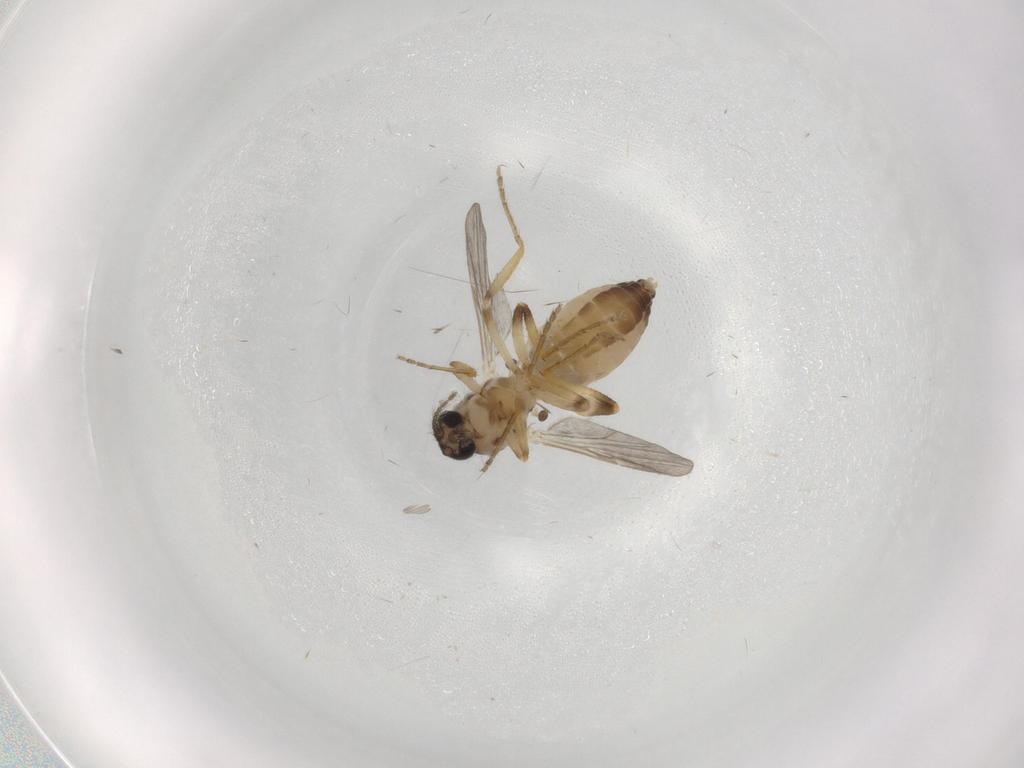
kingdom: Animalia
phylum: Arthropoda
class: Insecta
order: Diptera
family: Ceratopogonidae
